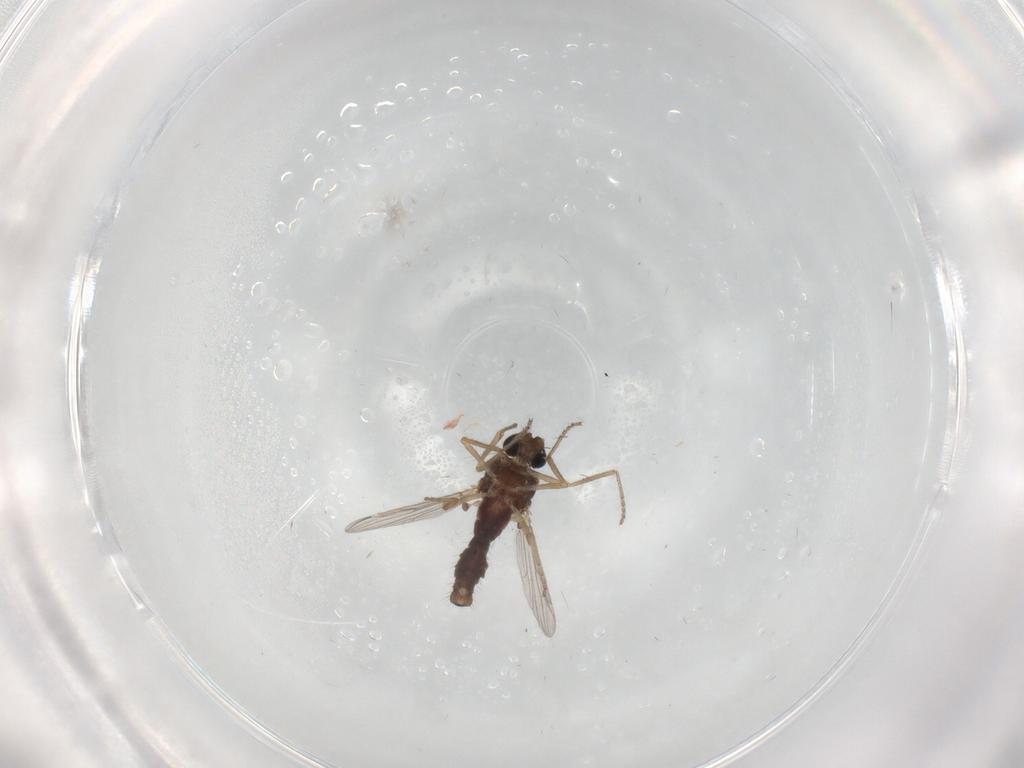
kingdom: Animalia
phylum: Arthropoda
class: Insecta
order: Diptera
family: Ceratopogonidae
